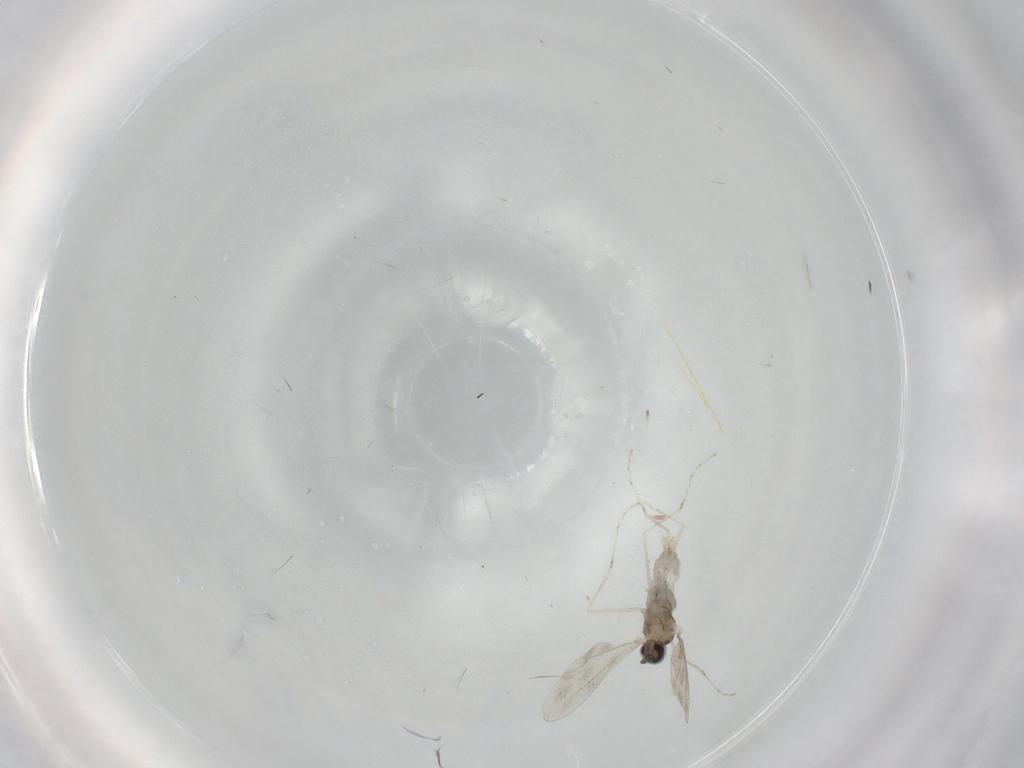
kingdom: Animalia
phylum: Arthropoda
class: Insecta
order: Diptera
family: Cecidomyiidae
